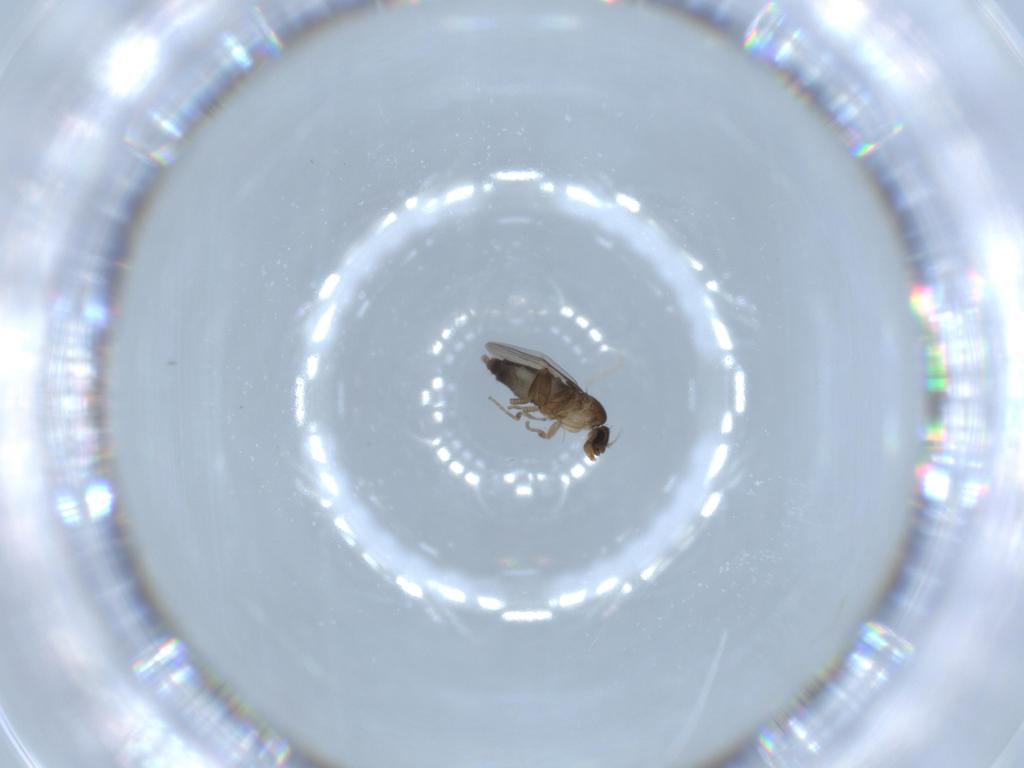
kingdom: Animalia
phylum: Arthropoda
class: Insecta
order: Diptera
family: Phoridae
